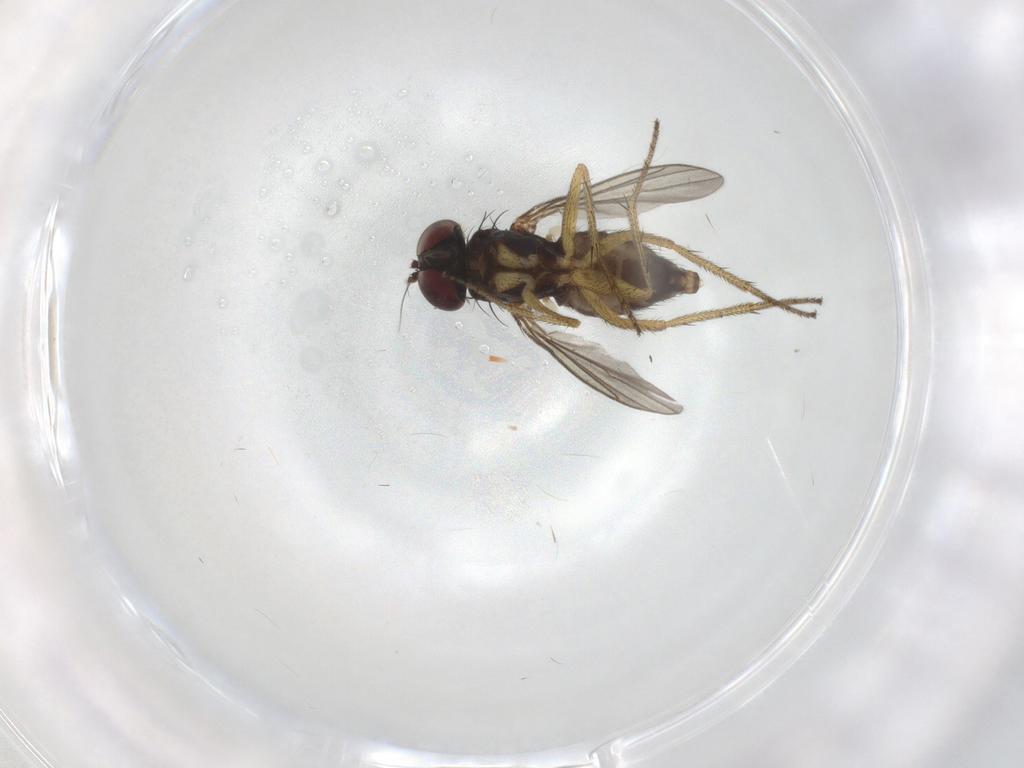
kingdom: Animalia
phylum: Arthropoda
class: Insecta
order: Diptera
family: Dolichopodidae
